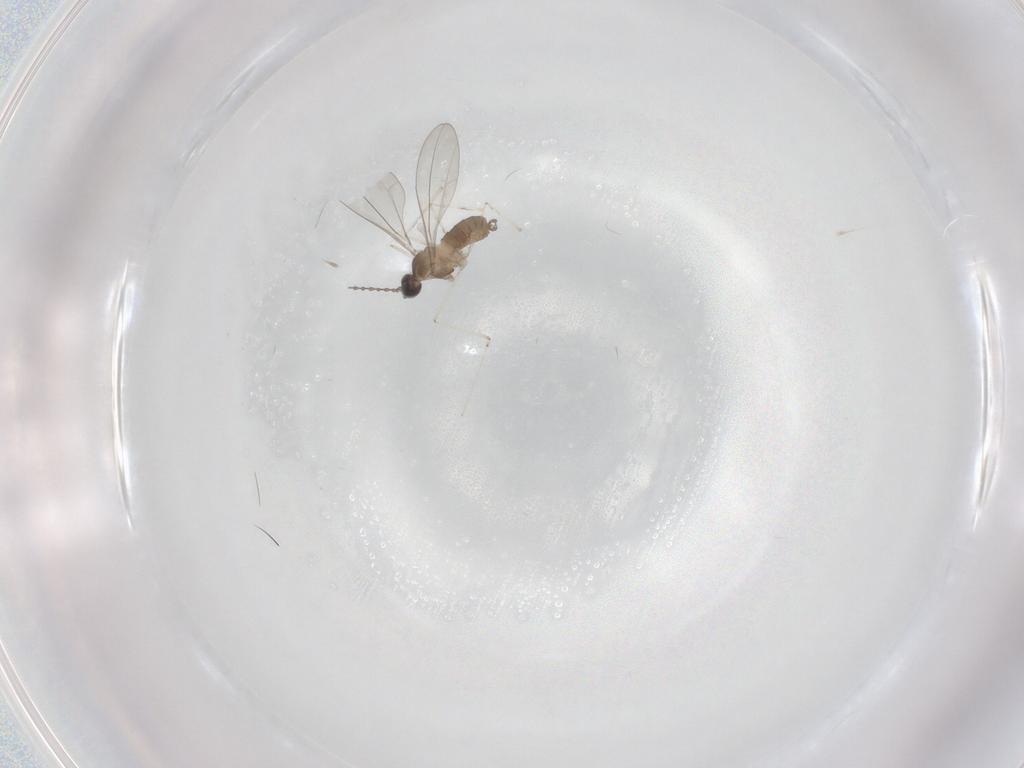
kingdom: Animalia
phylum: Arthropoda
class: Insecta
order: Diptera
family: Cecidomyiidae
